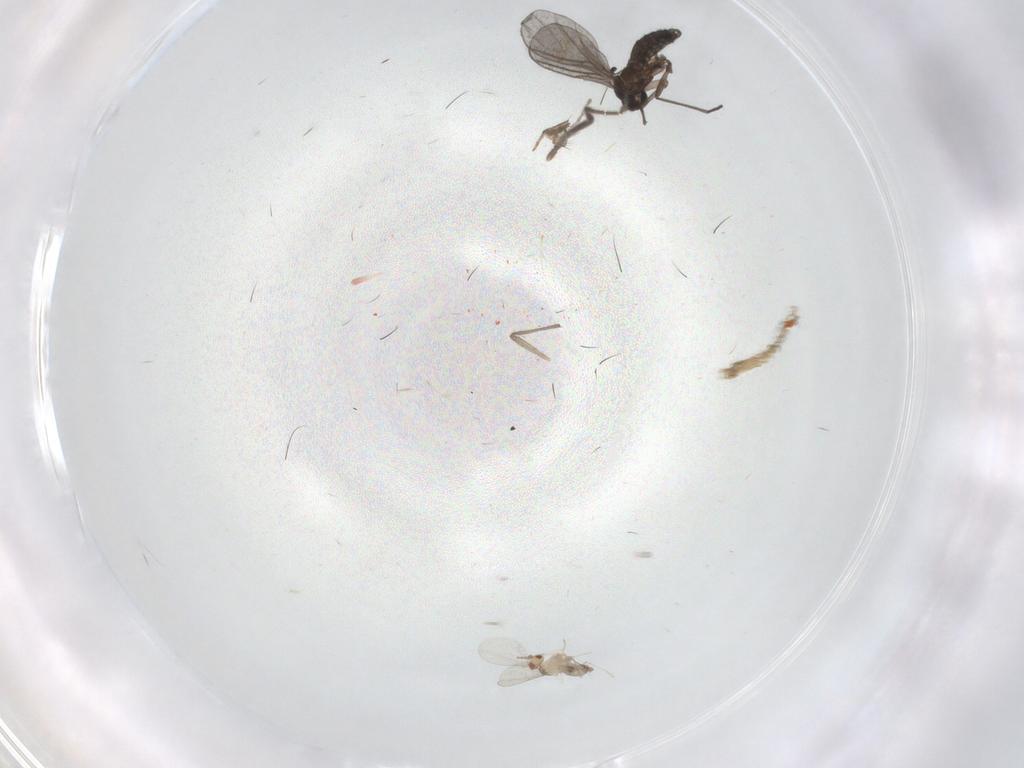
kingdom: Animalia
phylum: Arthropoda
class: Insecta
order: Diptera
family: Sciaridae
